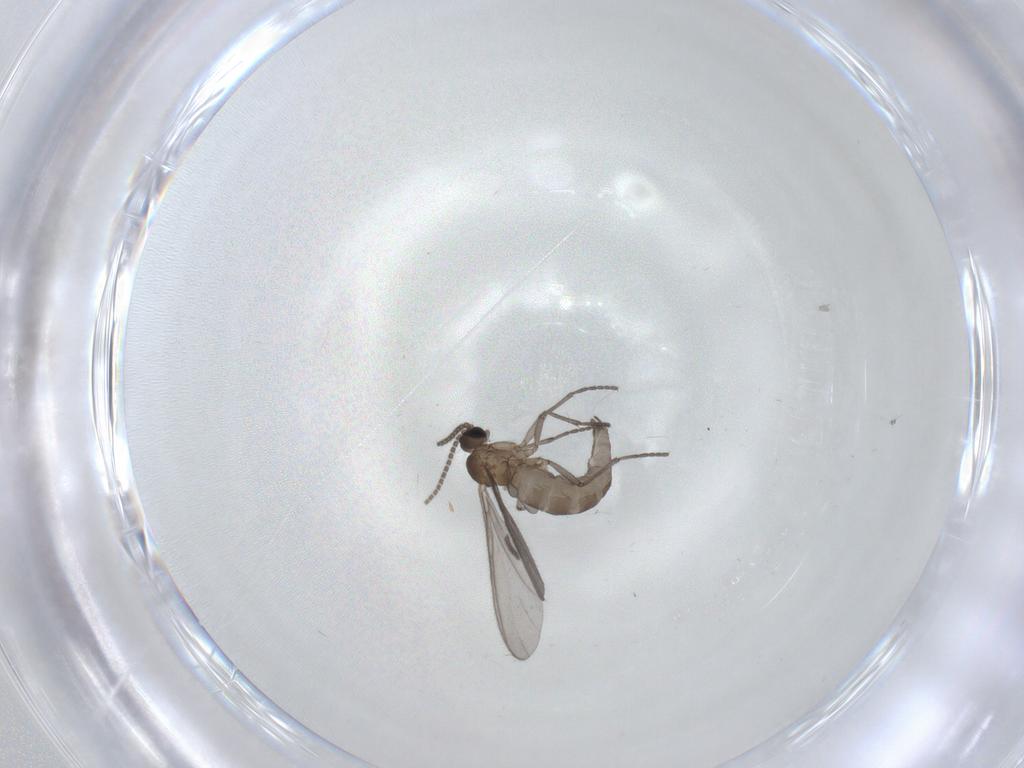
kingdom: Animalia
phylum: Arthropoda
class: Insecta
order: Diptera
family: Sciaridae
